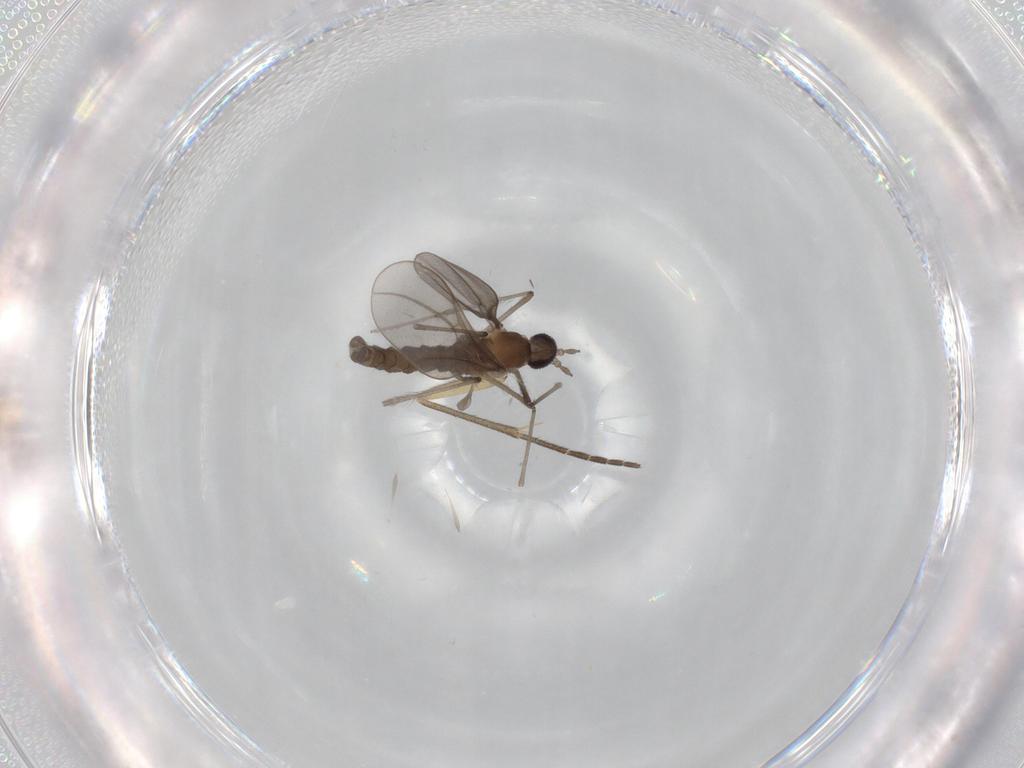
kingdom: Animalia
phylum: Arthropoda
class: Insecta
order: Diptera
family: Mycetophilidae
